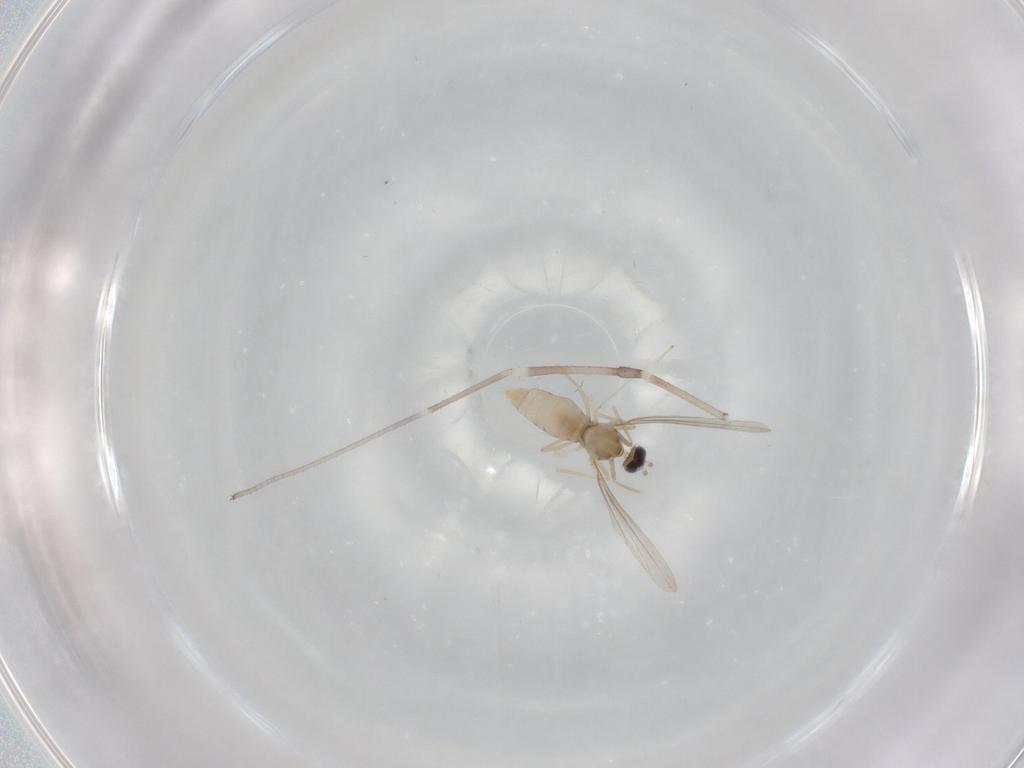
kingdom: Animalia
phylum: Arthropoda
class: Insecta
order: Diptera
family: Cecidomyiidae
